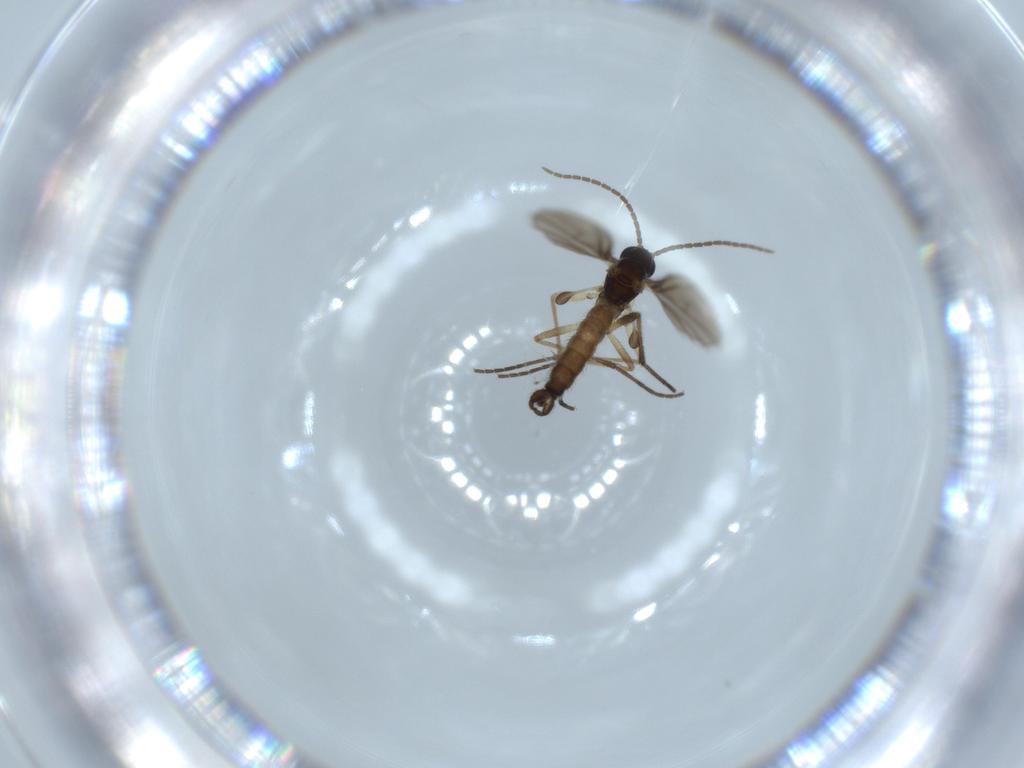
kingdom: Animalia
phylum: Arthropoda
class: Insecta
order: Diptera
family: Sciaridae
